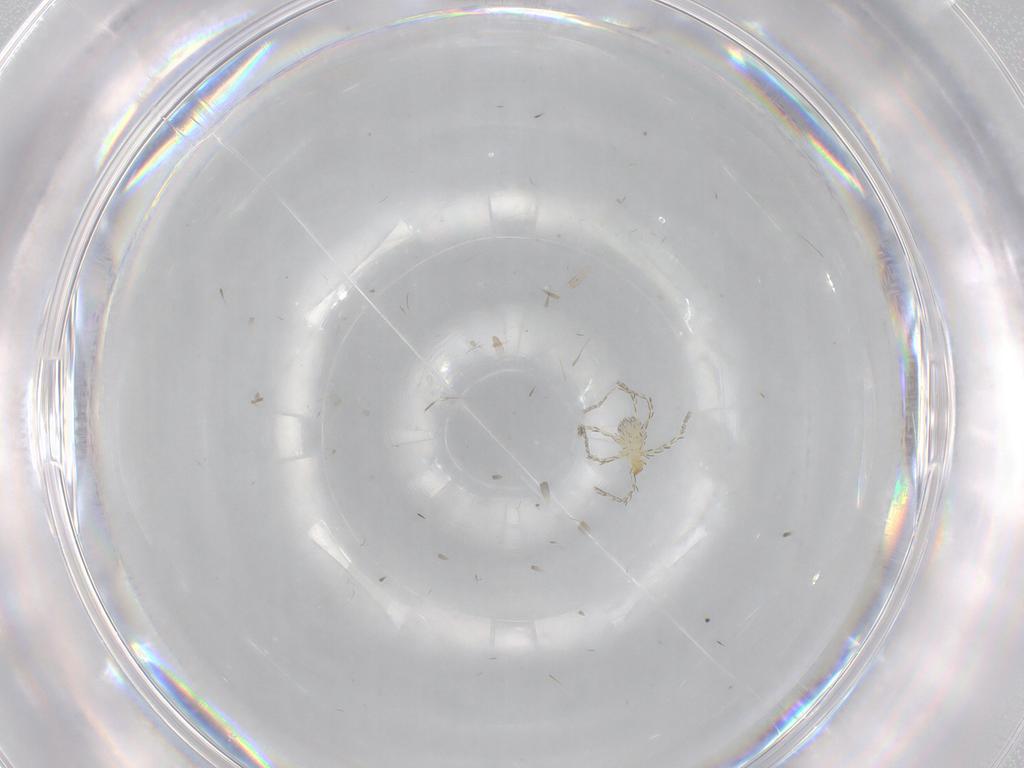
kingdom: Animalia
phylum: Arthropoda
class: Arachnida
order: Trombidiformes
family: Erythraeidae
